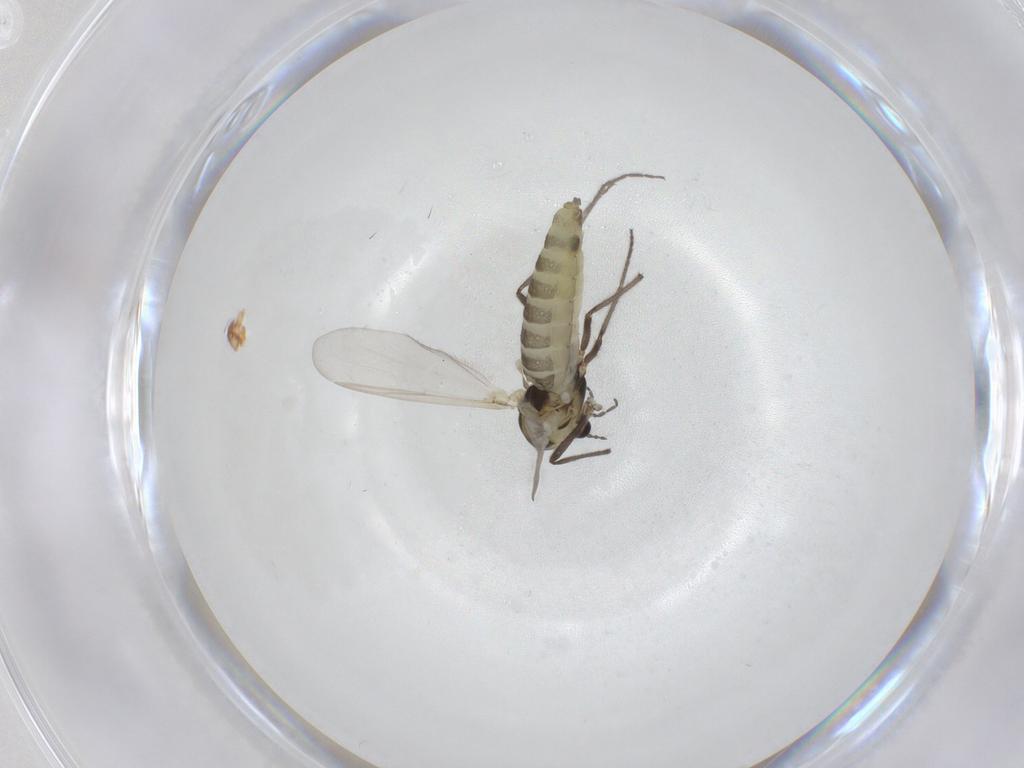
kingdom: Animalia
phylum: Arthropoda
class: Insecta
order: Diptera
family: Chironomidae
